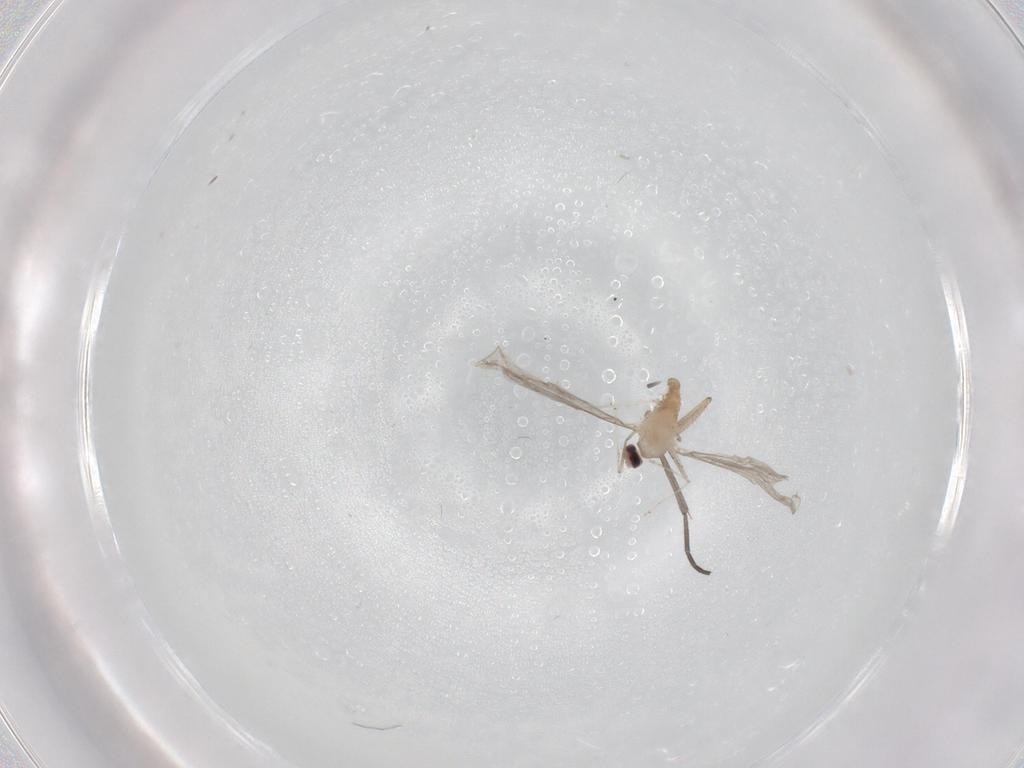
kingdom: Animalia
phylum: Arthropoda
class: Insecta
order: Diptera
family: Cecidomyiidae
